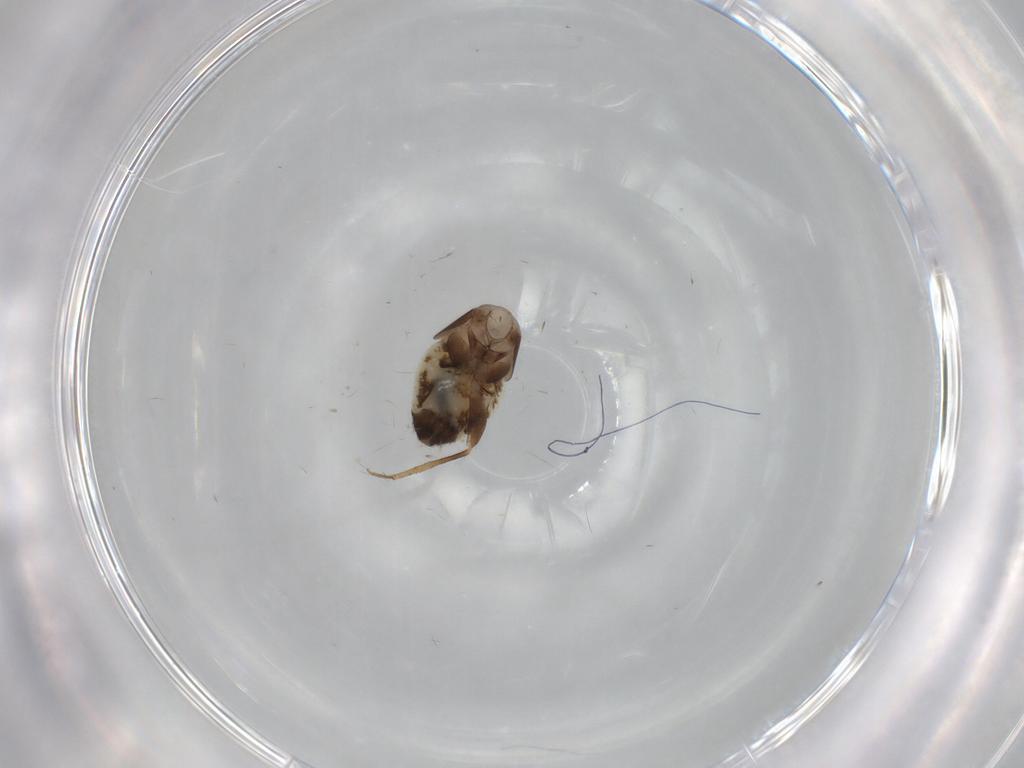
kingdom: Animalia
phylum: Arthropoda
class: Insecta
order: Psocodea
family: Lepidopsocidae
